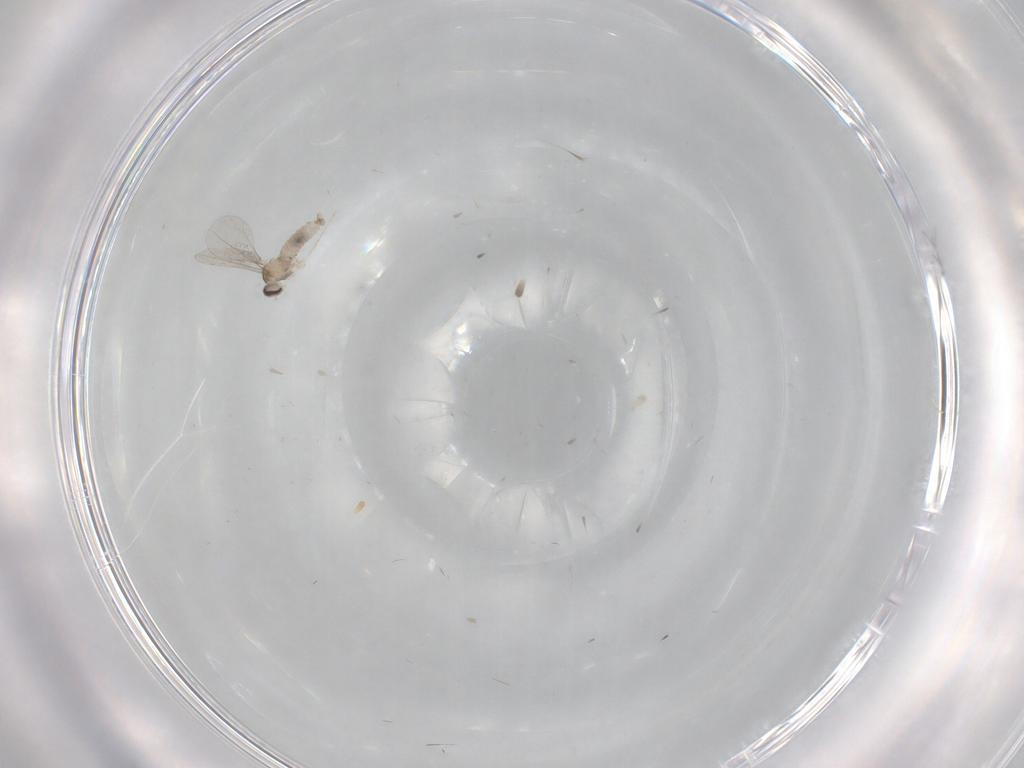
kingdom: Animalia
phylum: Arthropoda
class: Insecta
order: Diptera
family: Cecidomyiidae
